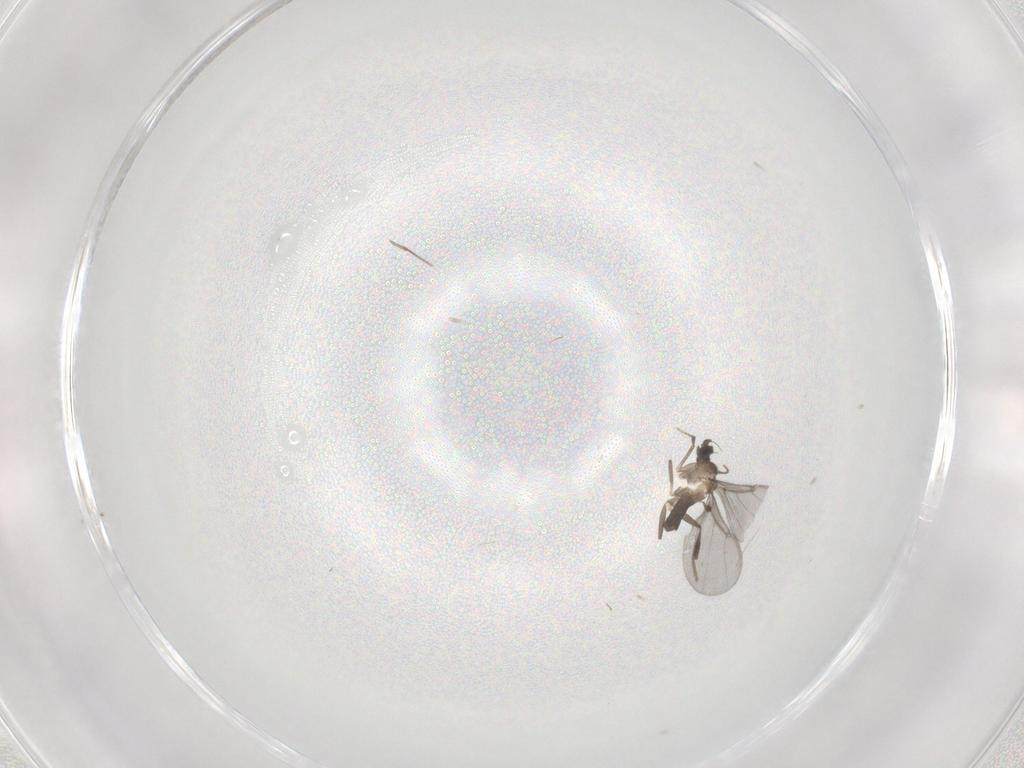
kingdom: Animalia
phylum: Arthropoda
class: Insecta
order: Diptera
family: Phoridae
